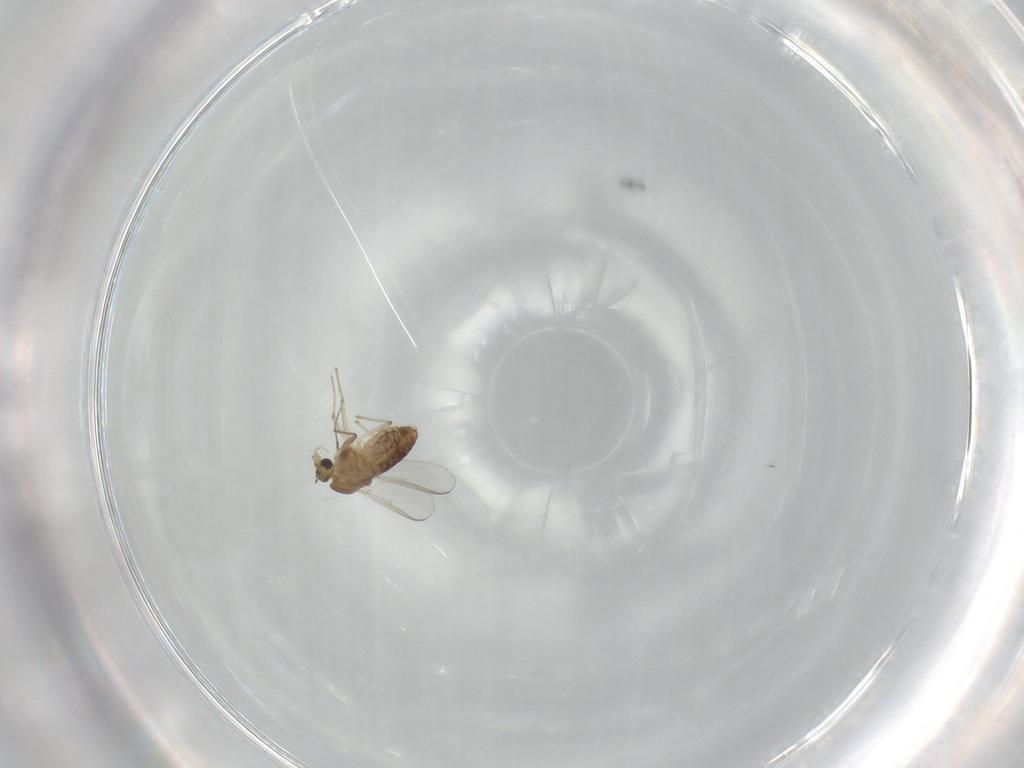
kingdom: Animalia
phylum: Arthropoda
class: Insecta
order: Diptera
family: Chironomidae
